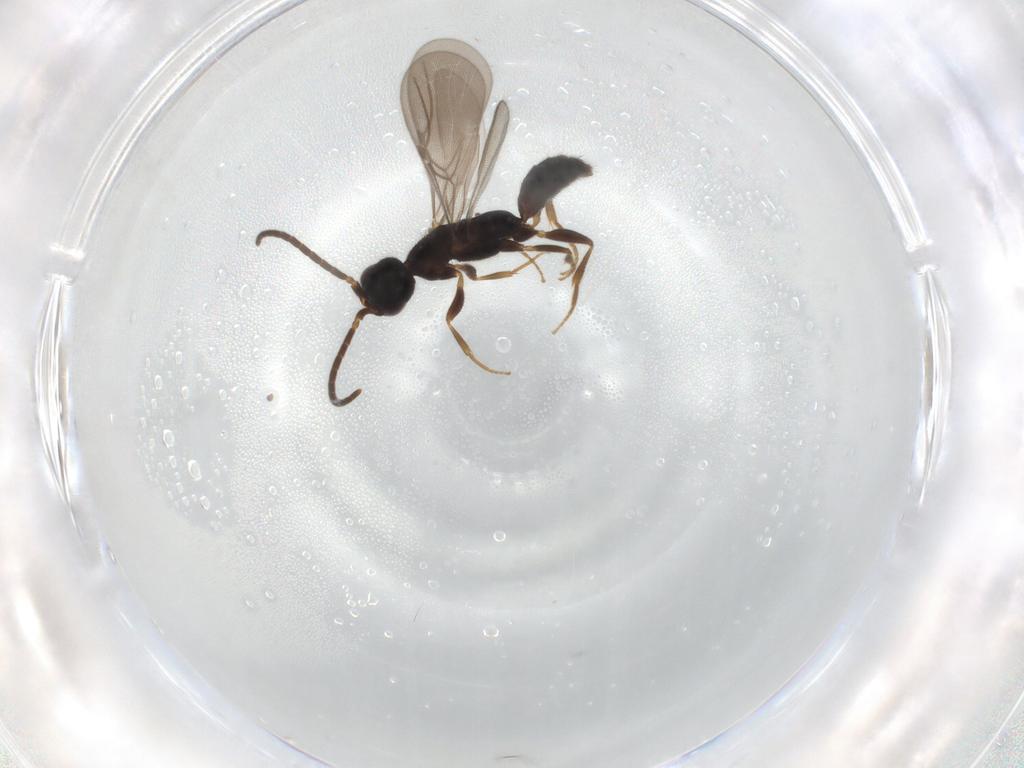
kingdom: Animalia
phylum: Arthropoda
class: Insecta
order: Hymenoptera
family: Bethylidae
